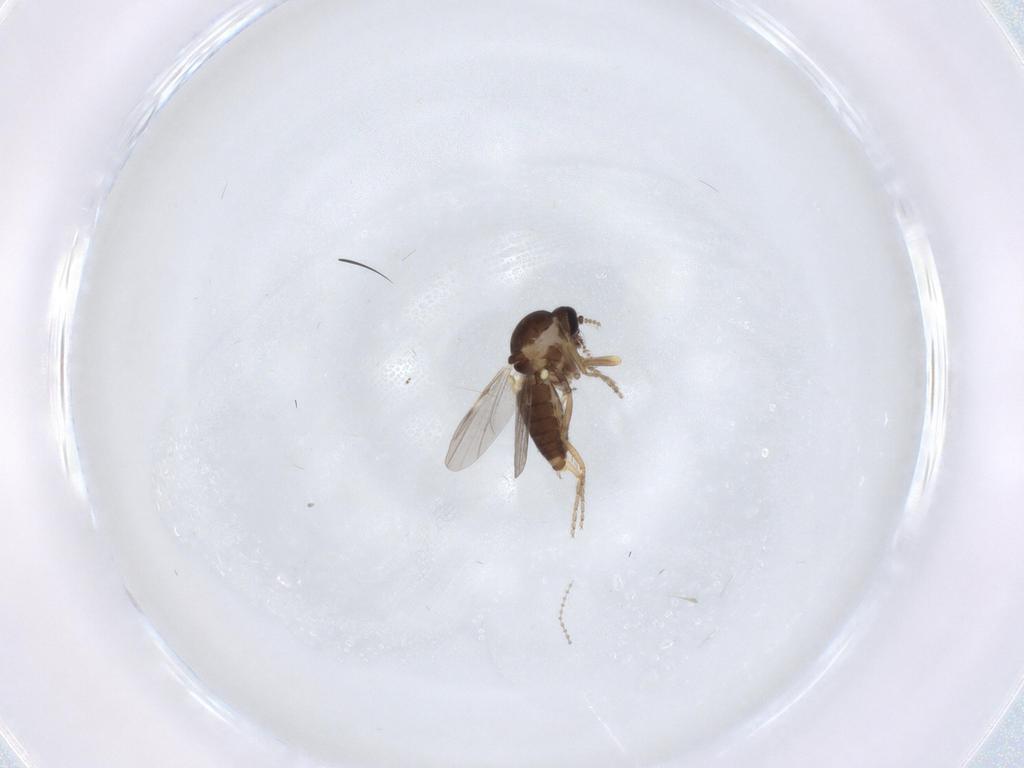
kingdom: Animalia
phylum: Arthropoda
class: Insecta
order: Diptera
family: Ceratopogonidae
